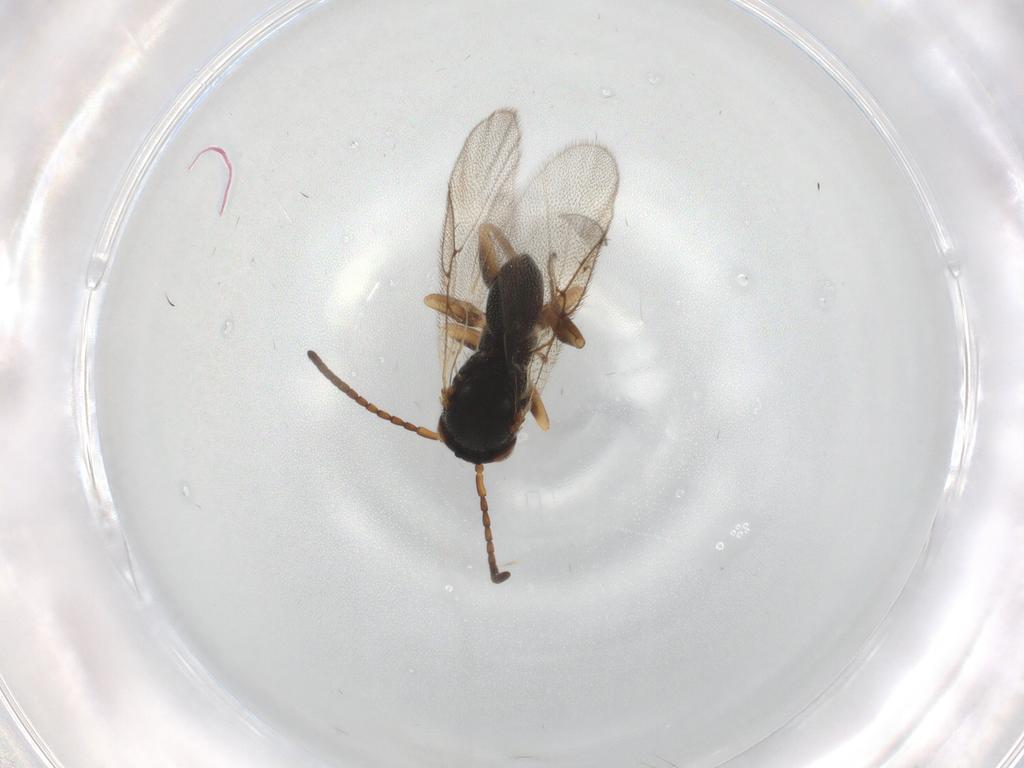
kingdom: Animalia
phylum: Arthropoda
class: Insecta
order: Hymenoptera
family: Cynipidae
